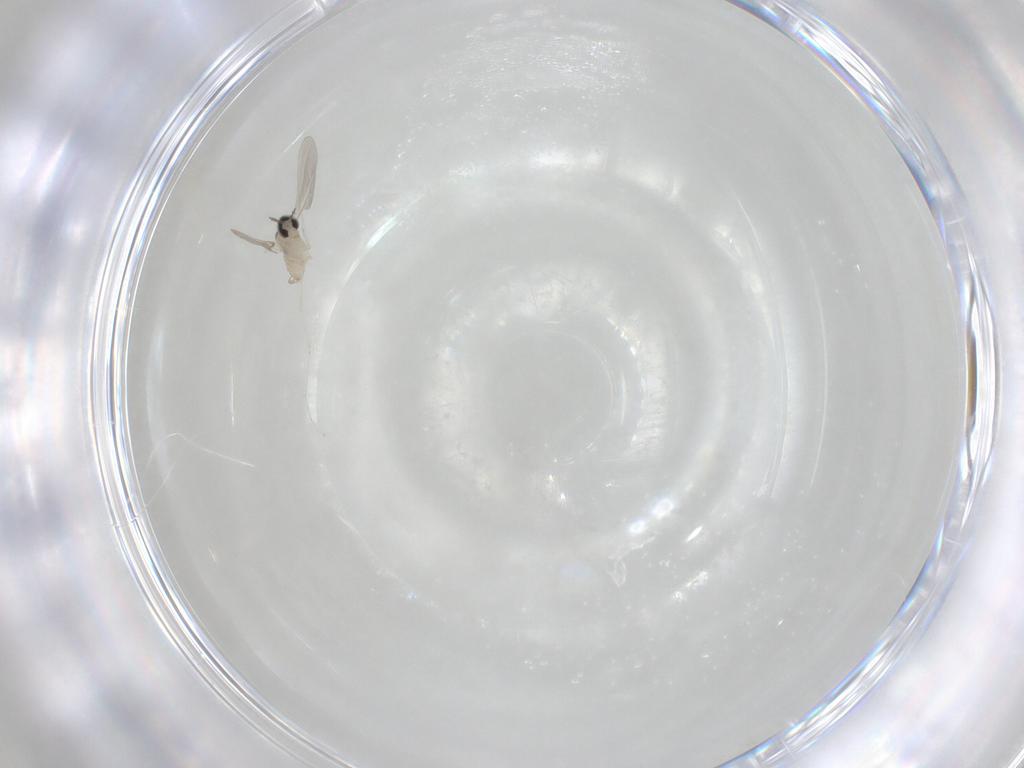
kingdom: Animalia
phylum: Arthropoda
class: Insecta
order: Diptera
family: Cecidomyiidae
